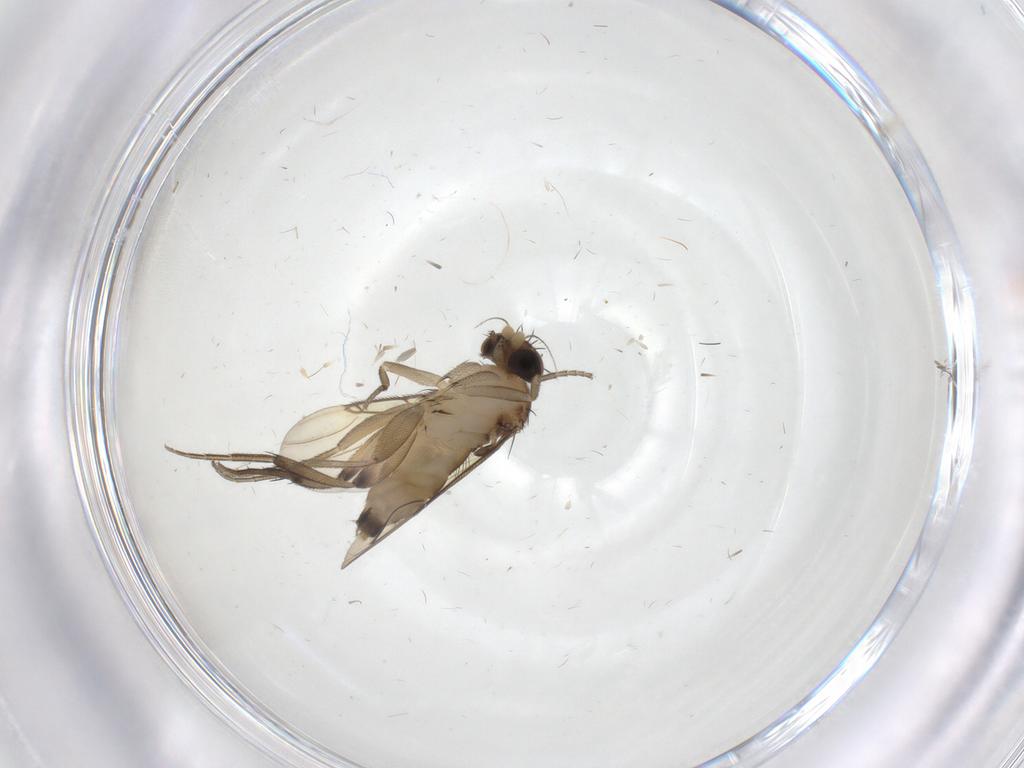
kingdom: Animalia
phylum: Arthropoda
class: Insecta
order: Diptera
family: Phoridae
